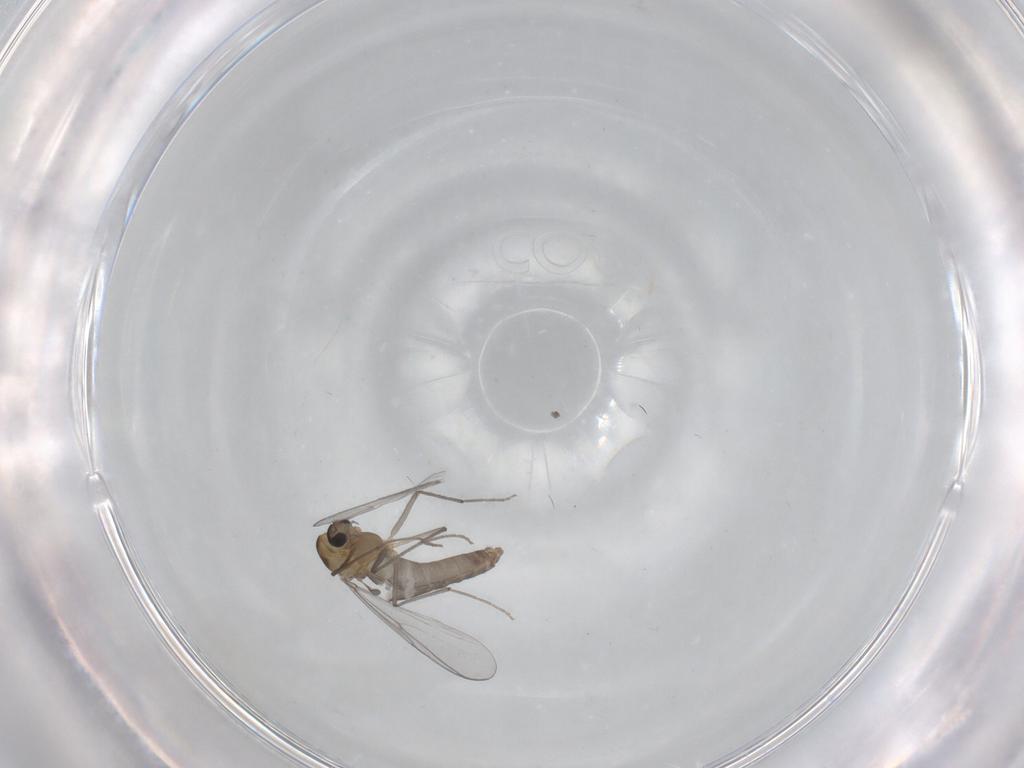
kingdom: Animalia
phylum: Arthropoda
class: Insecta
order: Diptera
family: Chironomidae
